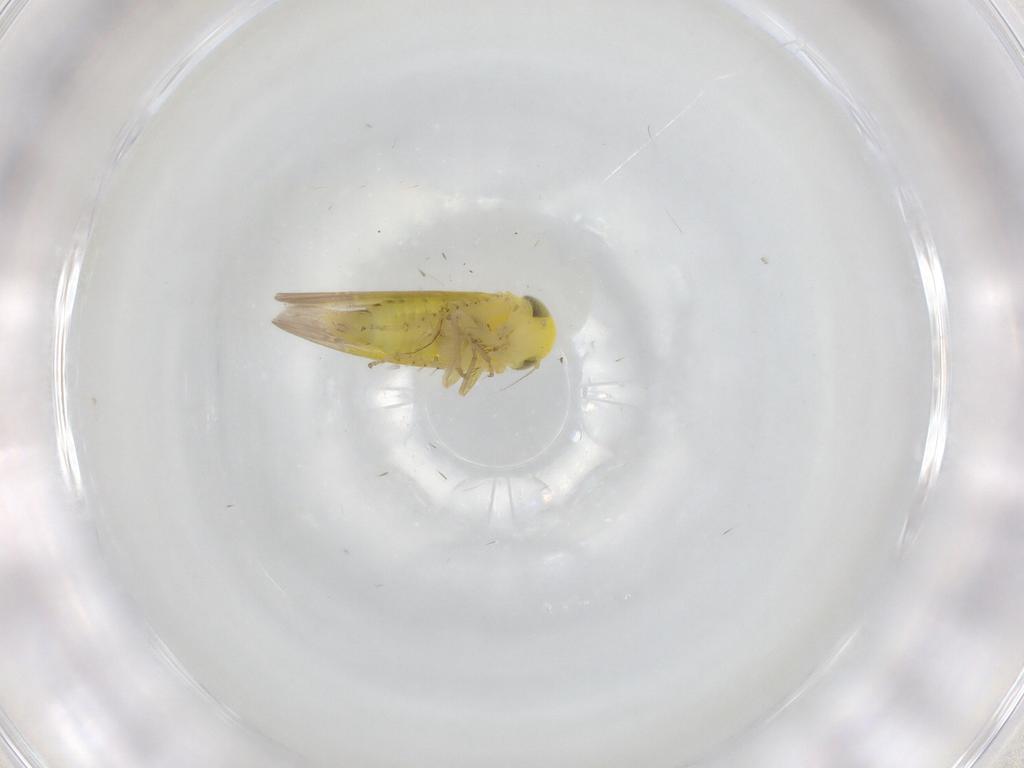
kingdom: Animalia
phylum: Arthropoda
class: Insecta
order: Hemiptera
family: Cicadellidae
